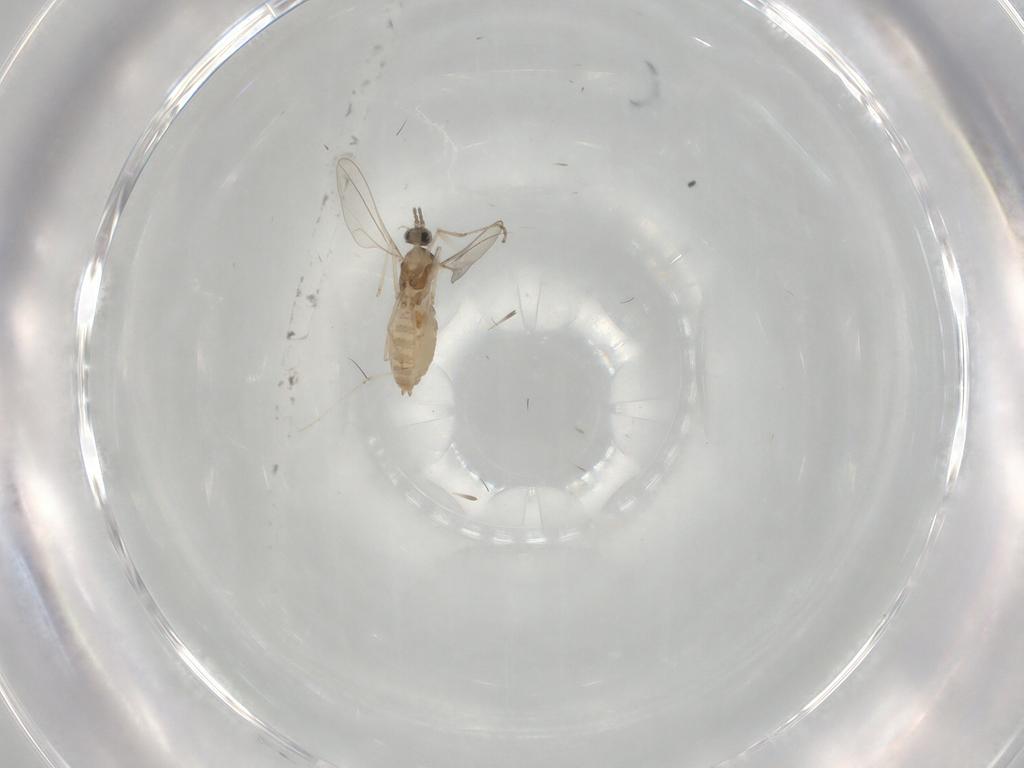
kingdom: Animalia
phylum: Arthropoda
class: Insecta
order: Diptera
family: Cecidomyiidae
